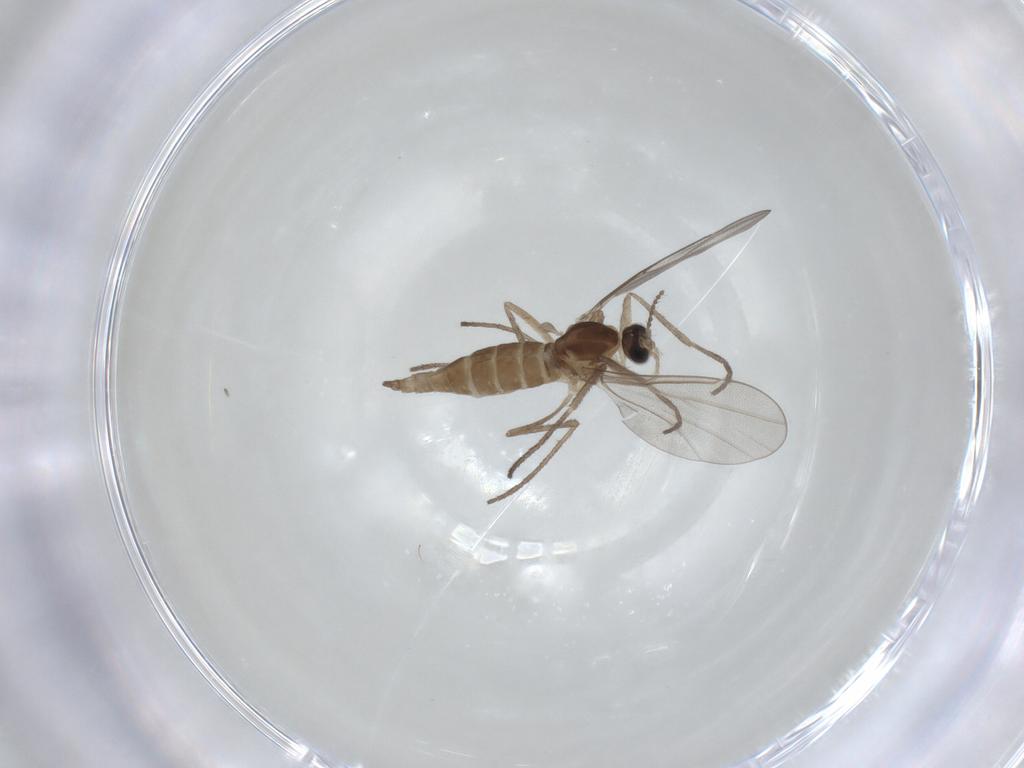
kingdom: Animalia
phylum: Arthropoda
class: Insecta
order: Diptera
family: Cecidomyiidae
